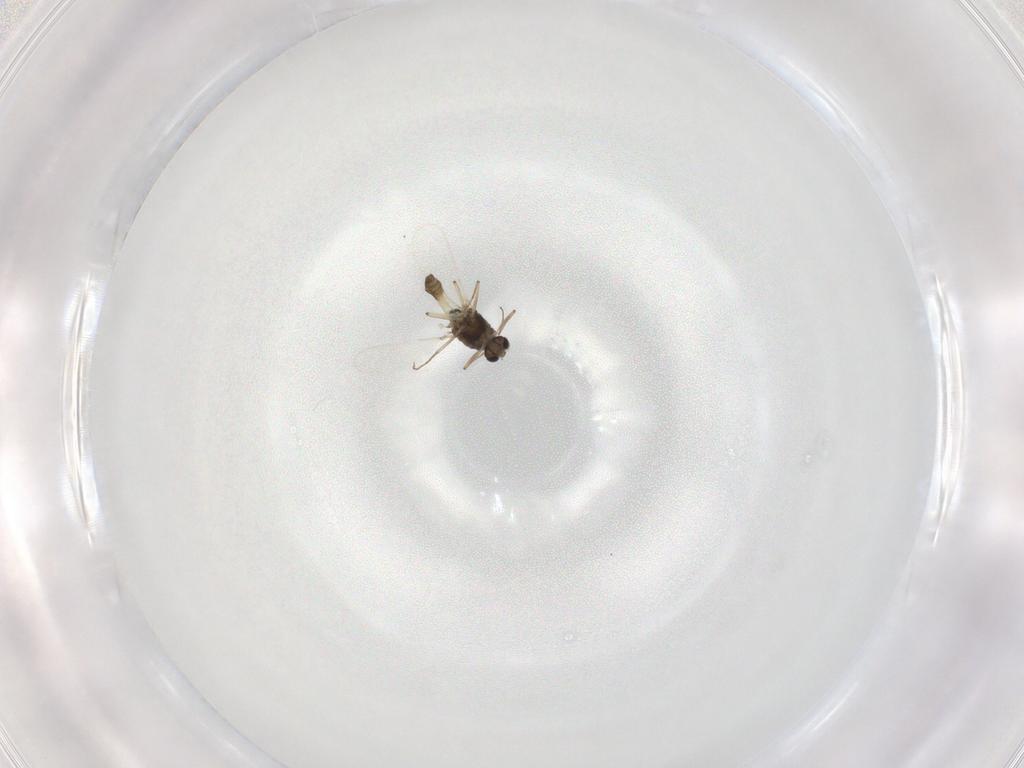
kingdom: Animalia
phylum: Arthropoda
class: Insecta
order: Diptera
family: Chironomidae
